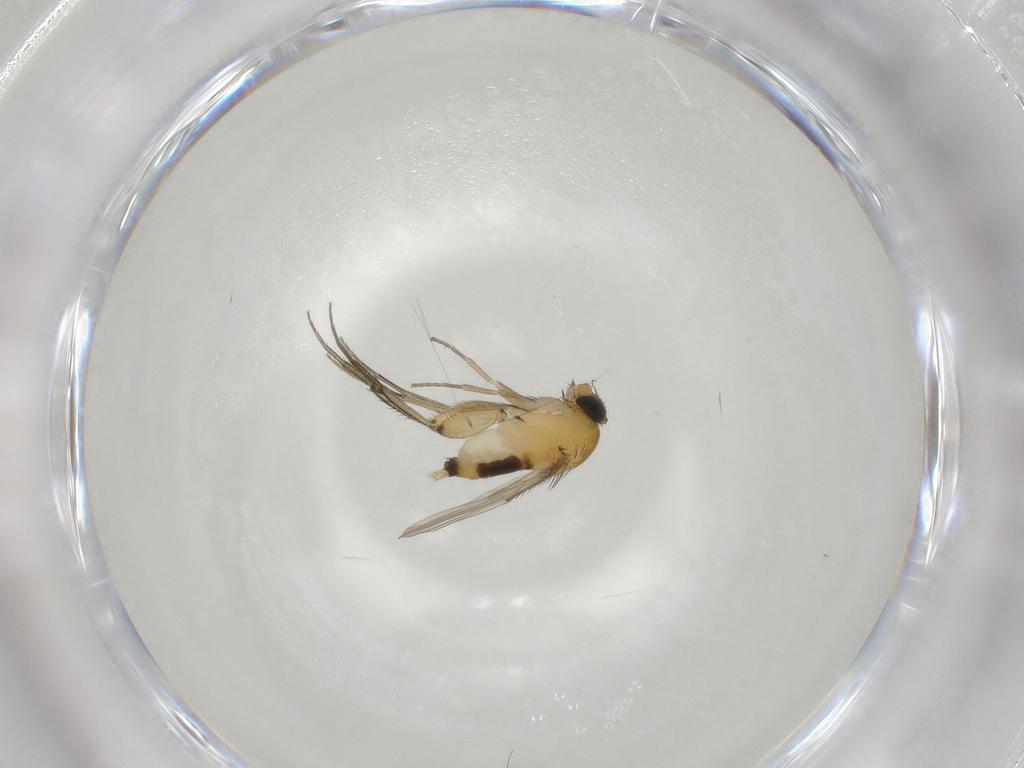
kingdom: Animalia
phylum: Arthropoda
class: Insecta
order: Diptera
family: Phoridae
